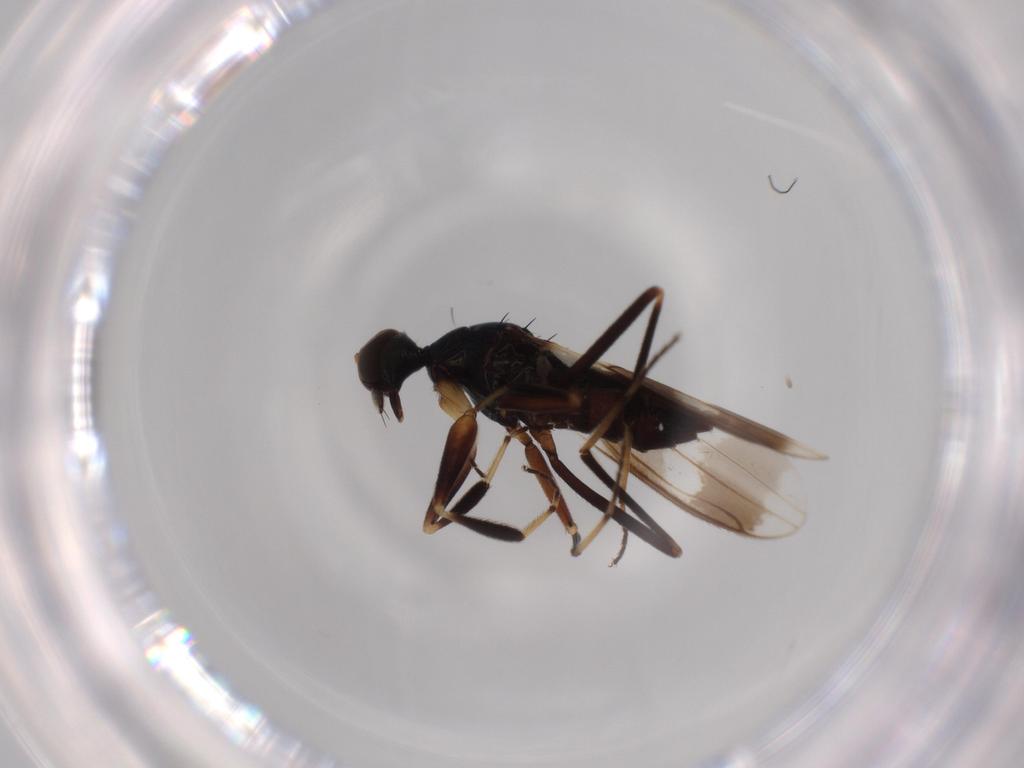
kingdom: Animalia
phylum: Arthropoda
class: Insecta
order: Diptera
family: Hybotidae
